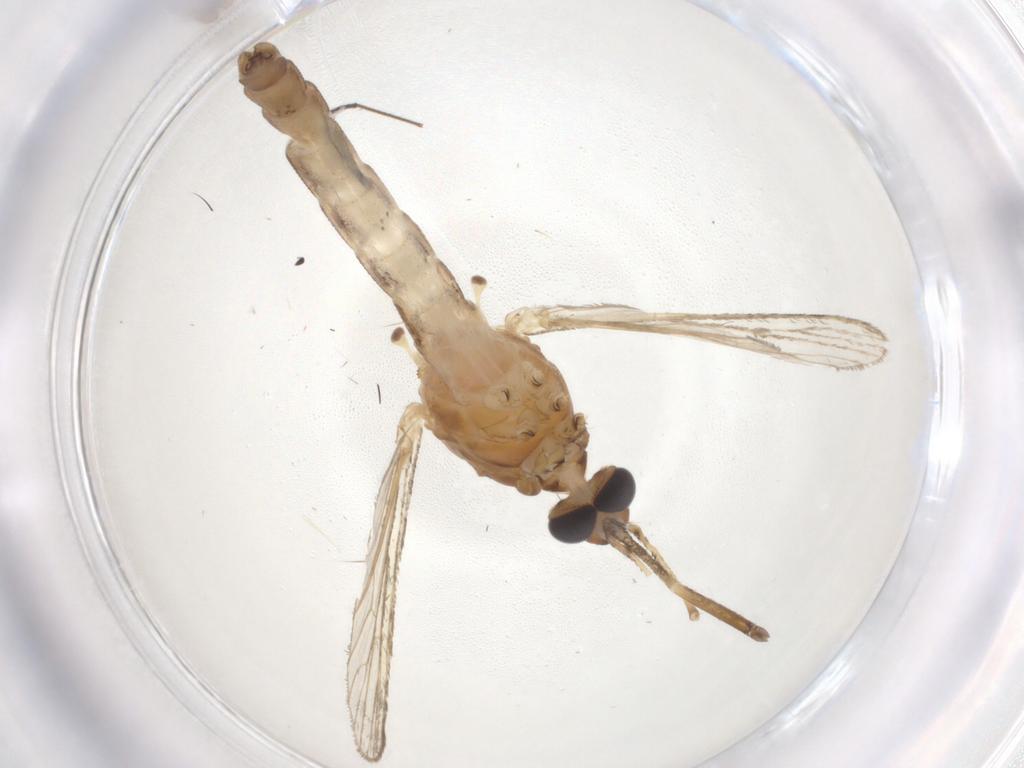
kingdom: Animalia
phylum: Arthropoda
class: Insecta
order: Diptera
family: Culicidae
